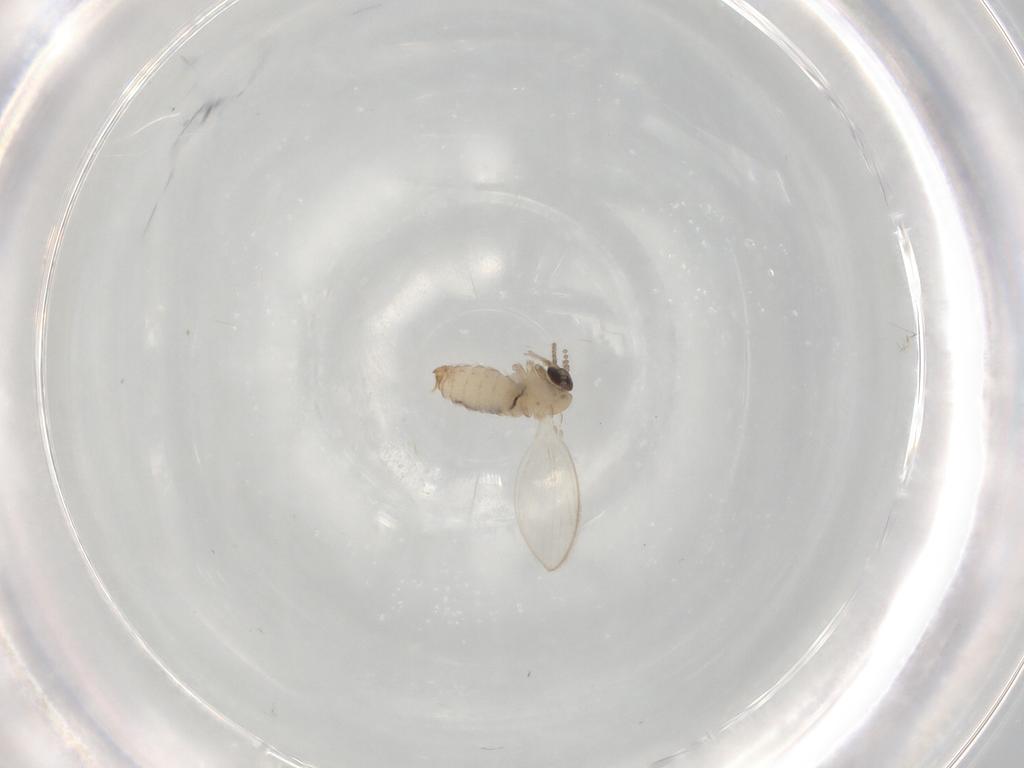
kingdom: Animalia
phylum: Arthropoda
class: Insecta
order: Diptera
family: Psychodidae
